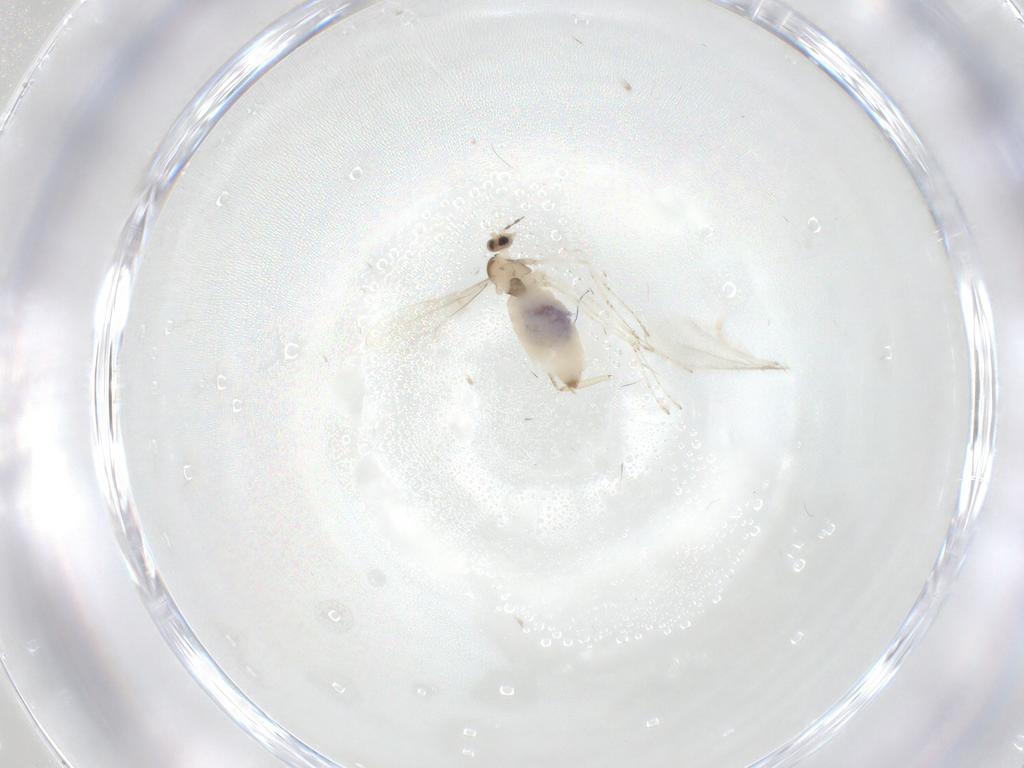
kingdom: Animalia
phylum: Arthropoda
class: Insecta
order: Diptera
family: Cecidomyiidae
